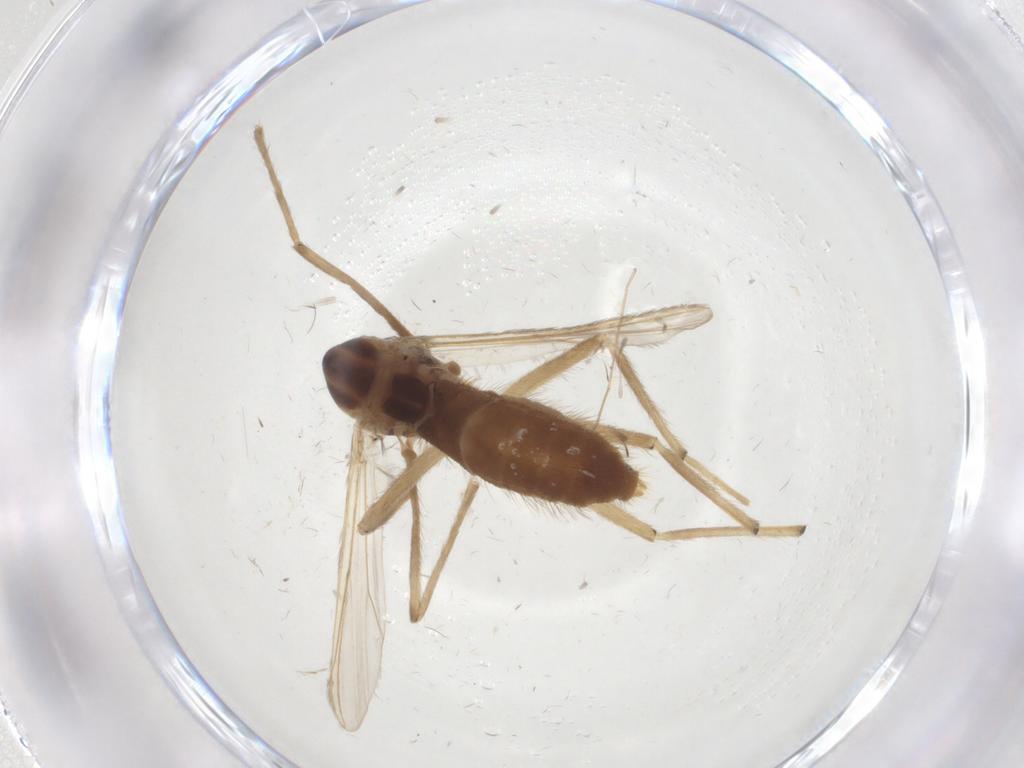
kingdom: Animalia
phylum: Arthropoda
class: Insecta
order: Diptera
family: Chironomidae
